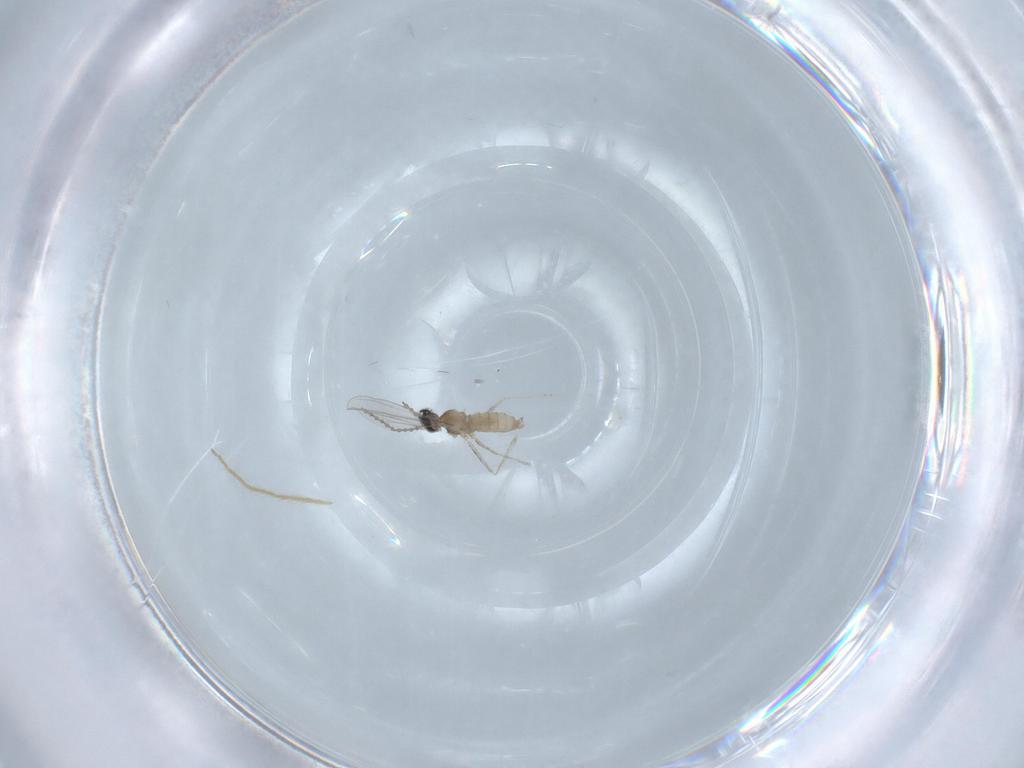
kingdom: Animalia
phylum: Arthropoda
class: Insecta
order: Diptera
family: Cecidomyiidae
